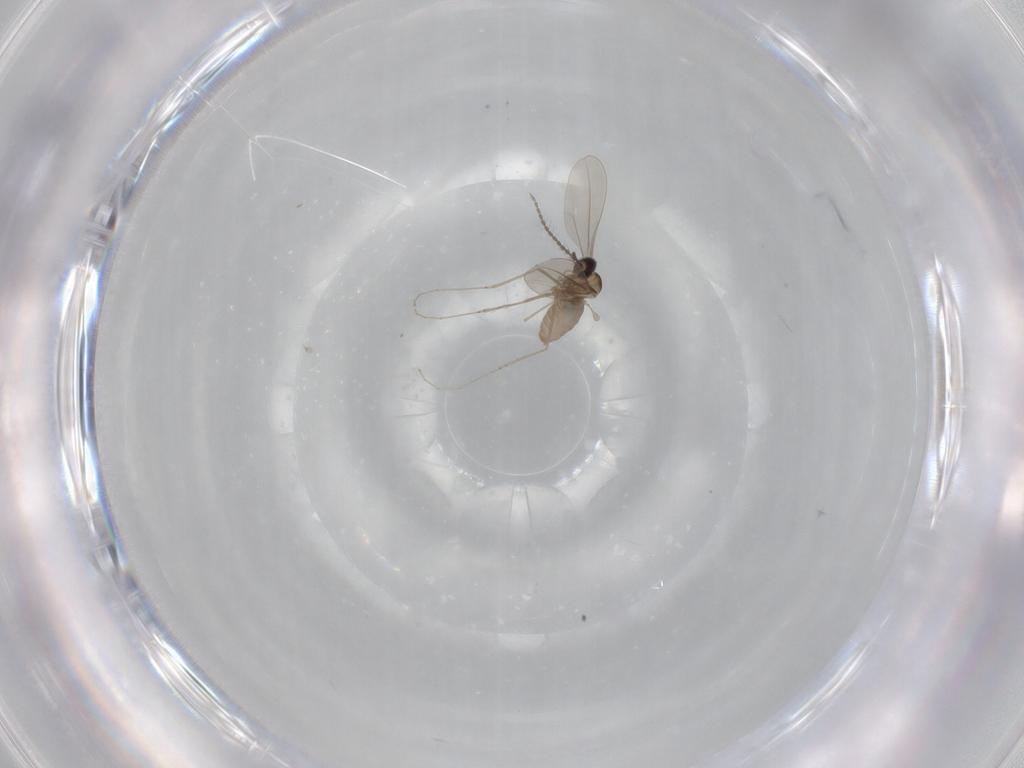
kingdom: Animalia
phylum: Arthropoda
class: Insecta
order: Diptera
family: Cecidomyiidae
